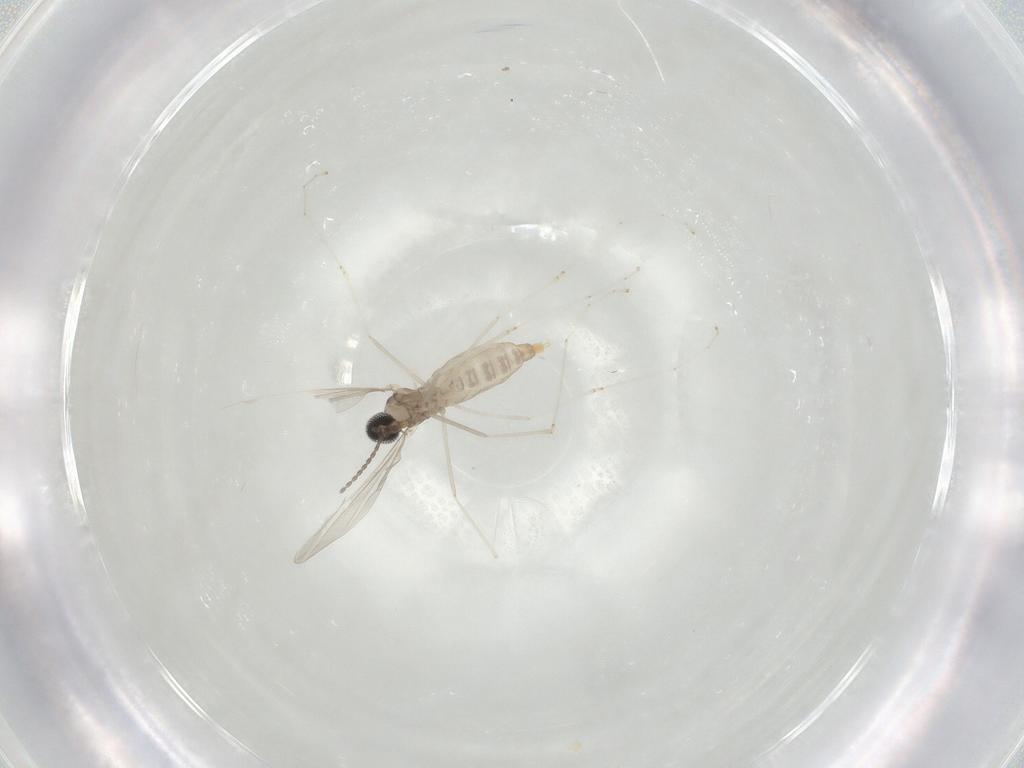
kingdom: Animalia
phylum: Arthropoda
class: Insecta
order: Diptera
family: Cecidomyiidae
